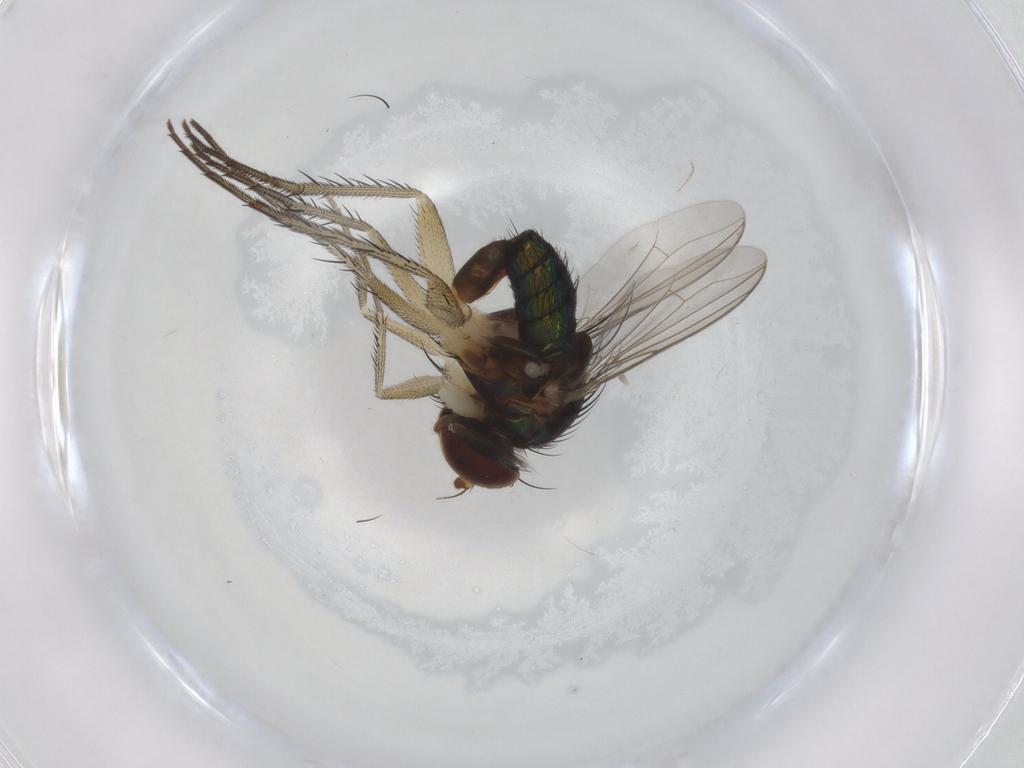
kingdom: Animalia
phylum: Arthropoda
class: Insecta
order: Diptera
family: Dolichopodidae
